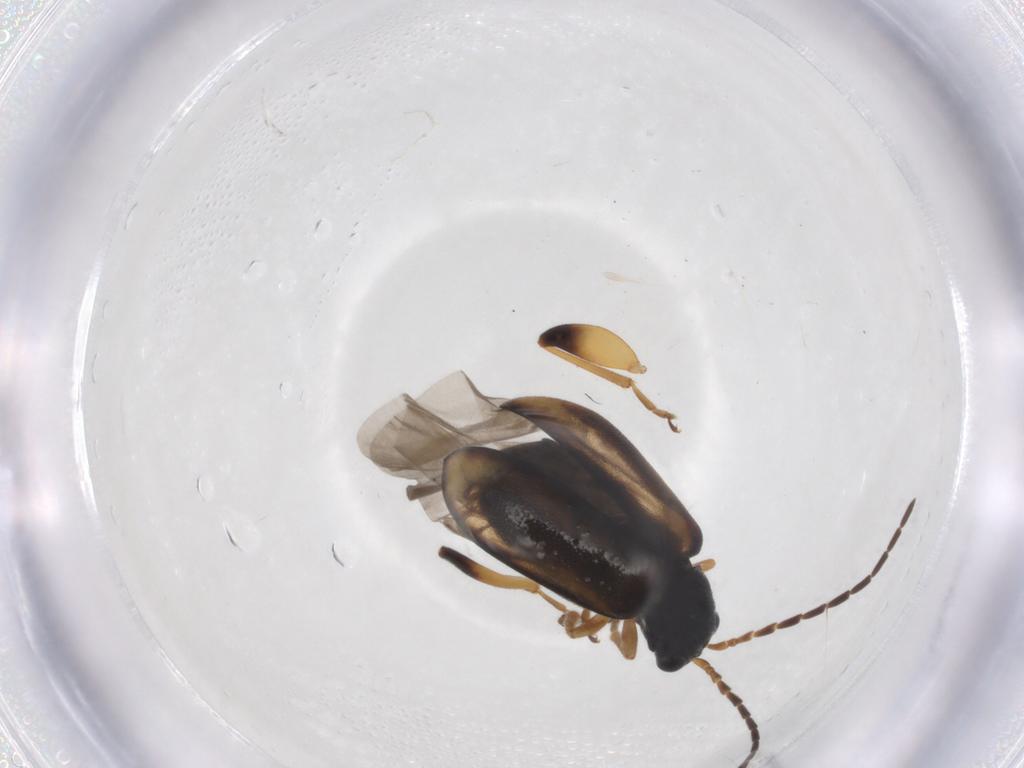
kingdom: Animalia
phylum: Arthropoda
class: Insecta
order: Coleoptera
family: Chrysomelidae
